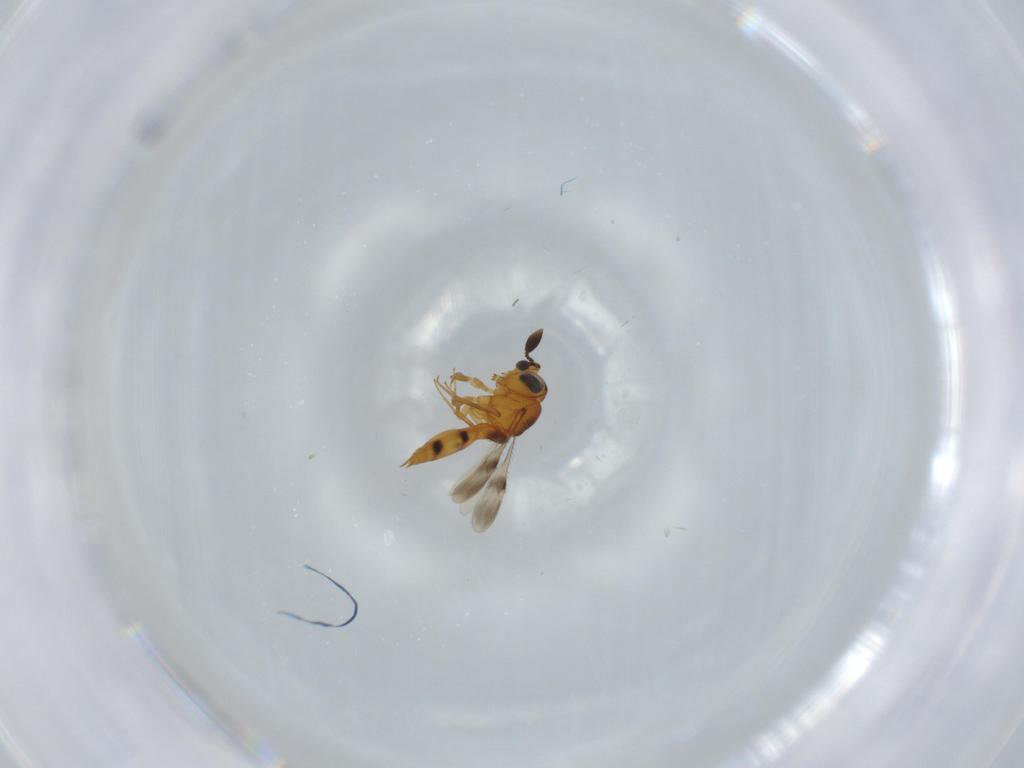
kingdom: Animalia
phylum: Arthropoda
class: Insecta
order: Hymenoptera
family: Scelionidae
